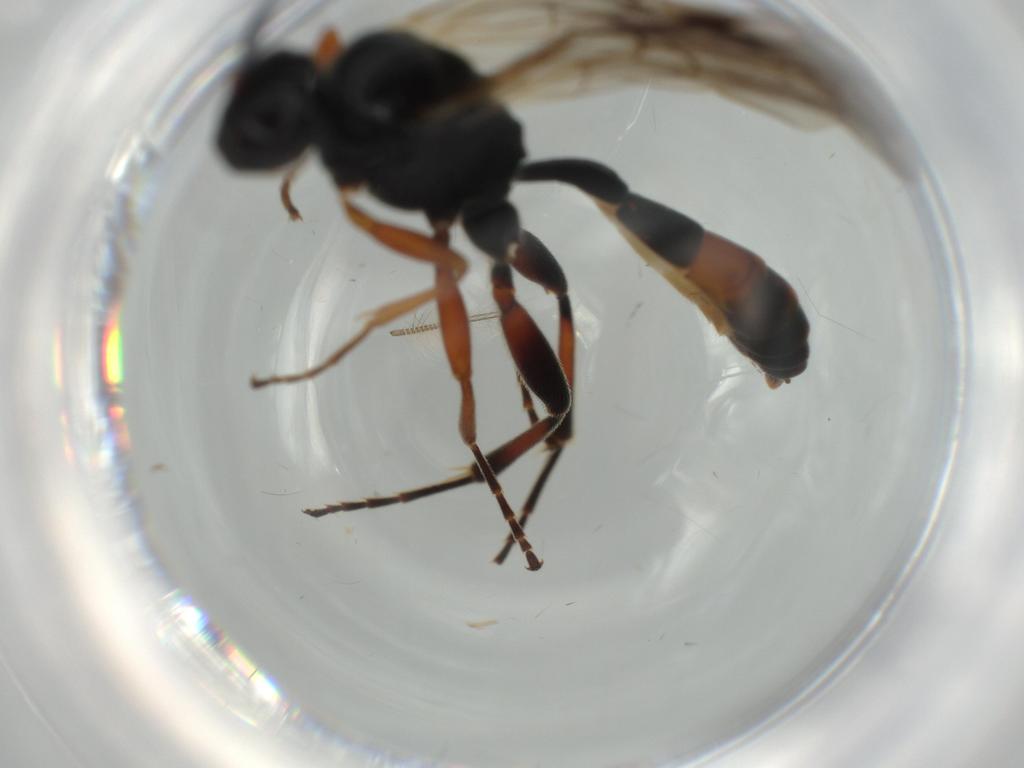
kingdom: Animalia
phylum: Arthropoda
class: Insecta
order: Hymenoptera
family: Ichneumonidae
